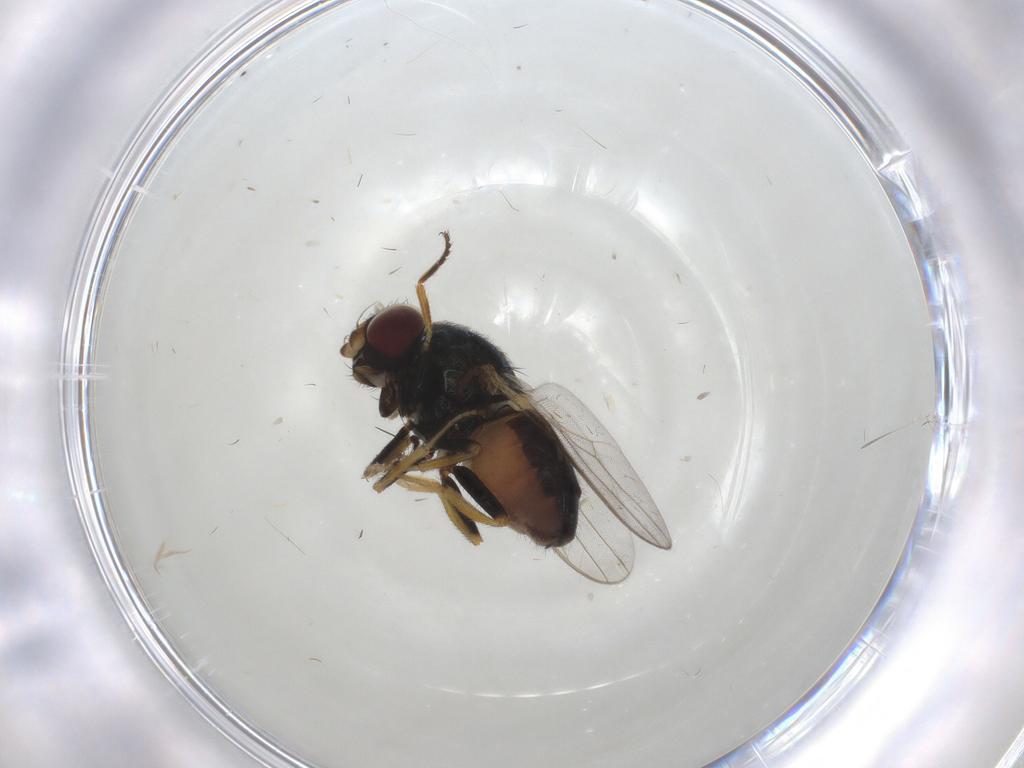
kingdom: Animalia
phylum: Arthropoda
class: Insecta
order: Diptera
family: Chloropidae
